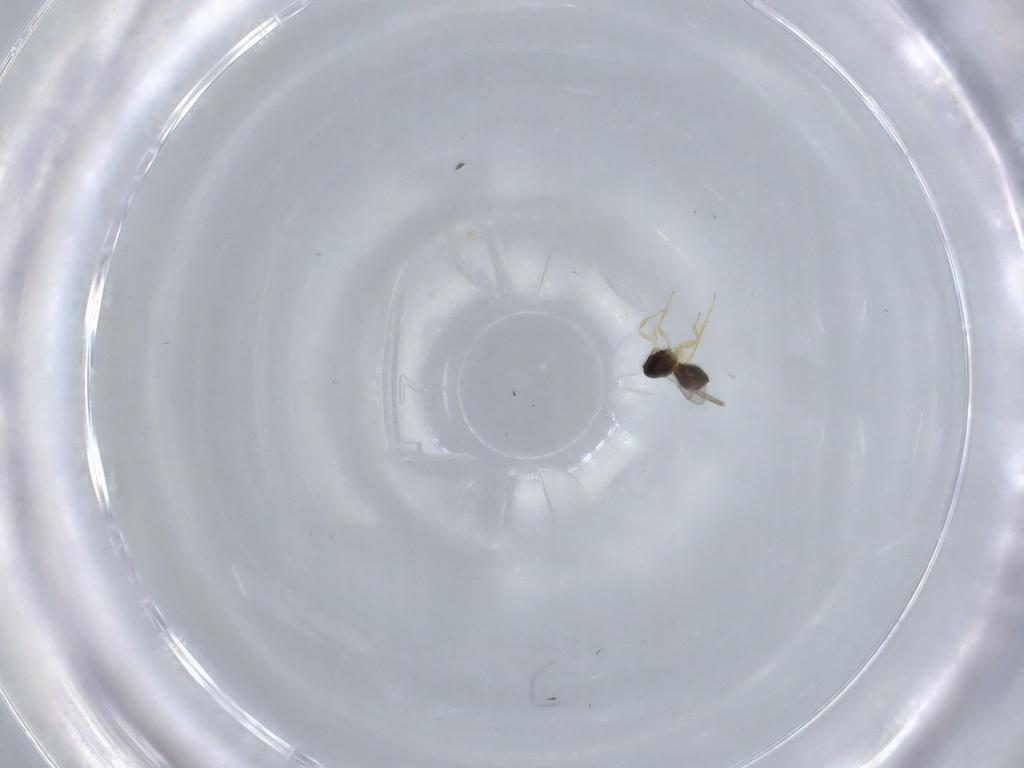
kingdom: Animalia
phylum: Arthropoda
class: Insecta
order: Hymenoptera
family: Scelionidae
